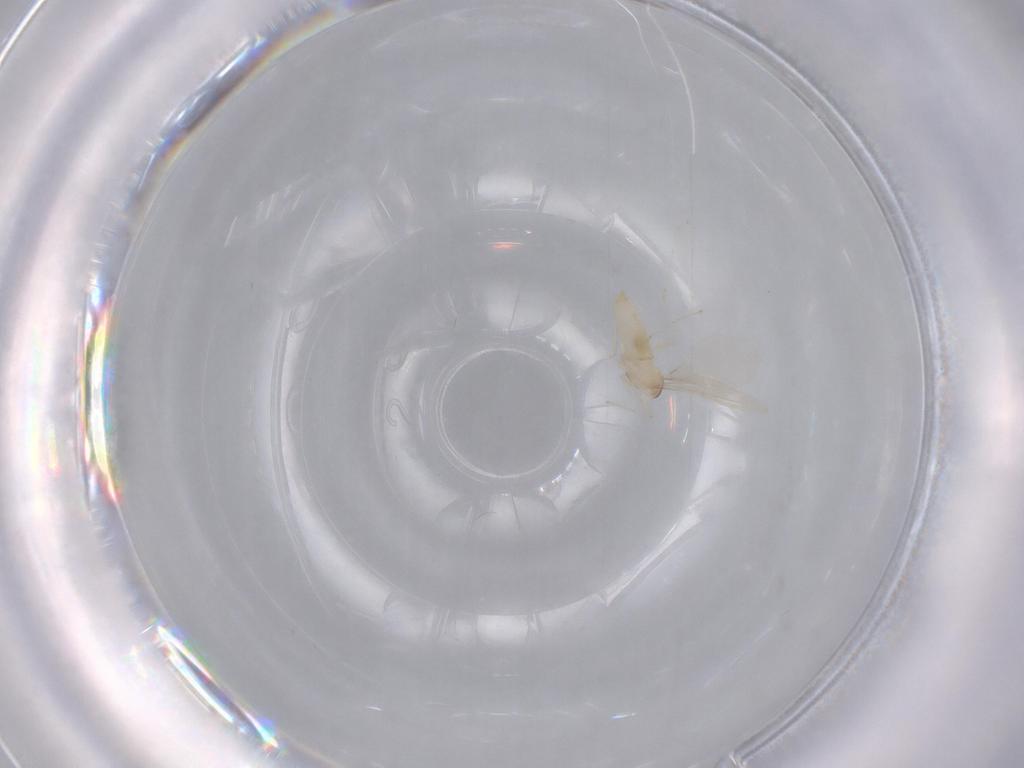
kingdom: Animalia
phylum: Arthropoda
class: Insecta
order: Diptera
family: Cecidomyiidae
